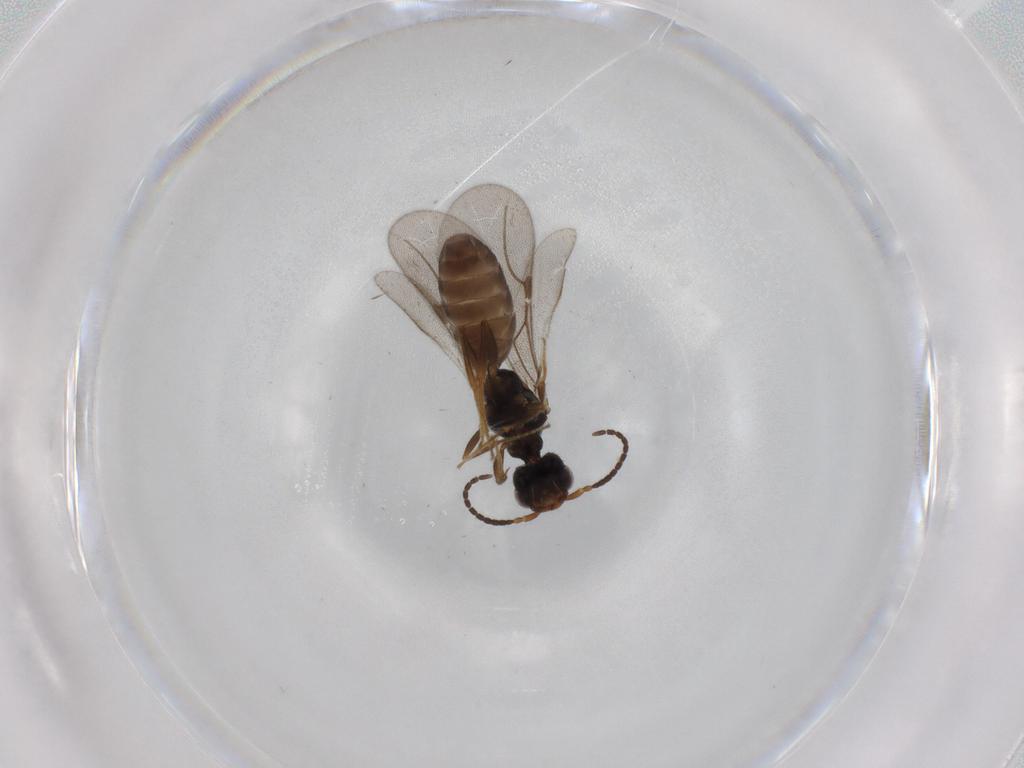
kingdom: Animalia
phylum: Arthropoda
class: Insecta
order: Hymenoptera
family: Bethylidae
